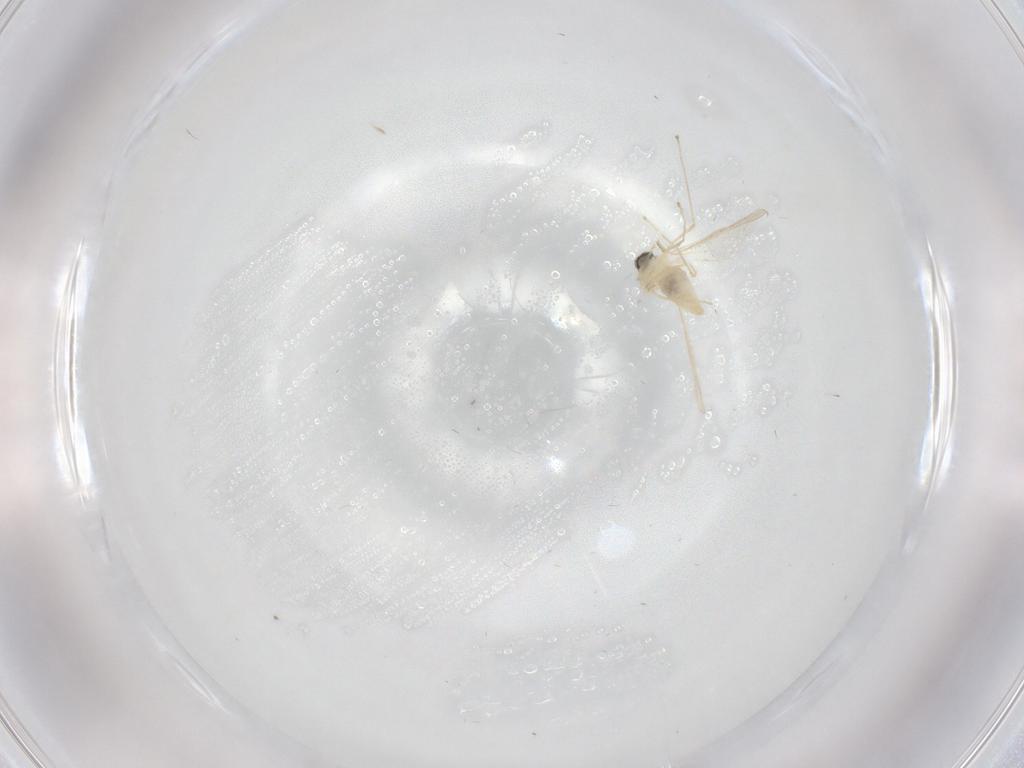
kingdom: Animalia
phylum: Arthropoda
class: Insecta
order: Diptera
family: Cecidomyiidae
